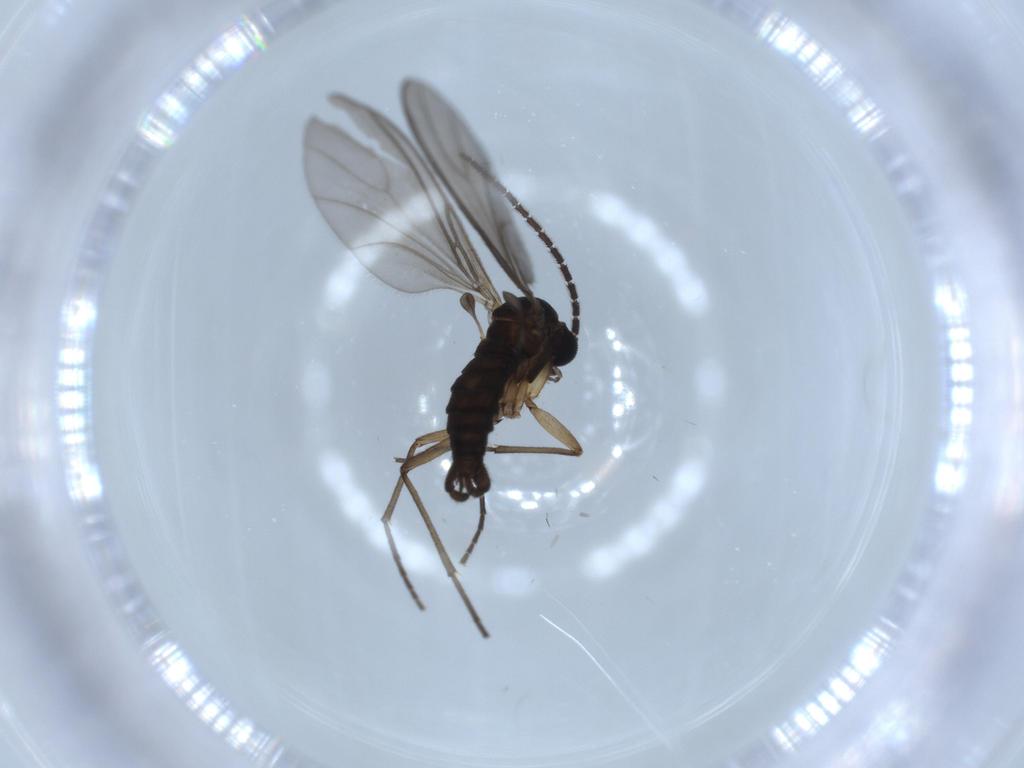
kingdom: Animalia
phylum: Arthropoda
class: Insecta
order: Diptera
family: Sciaridae
